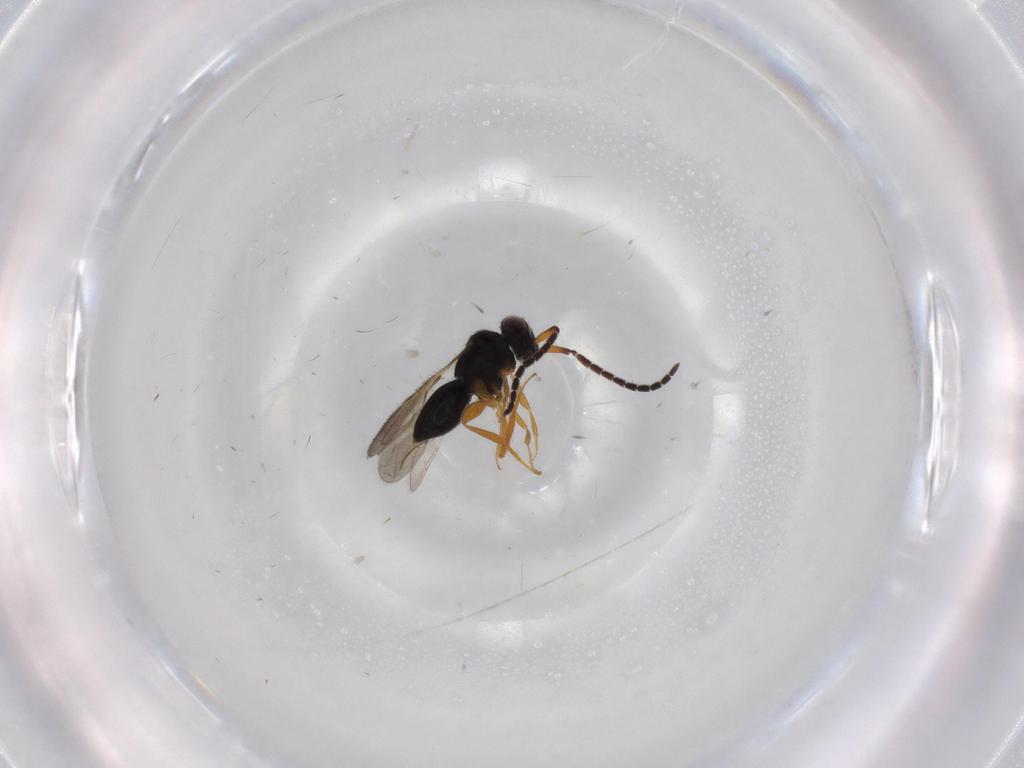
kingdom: Animalia
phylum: Arthropoda
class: Insecta
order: Hymenoptera
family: Ceraphronidae
